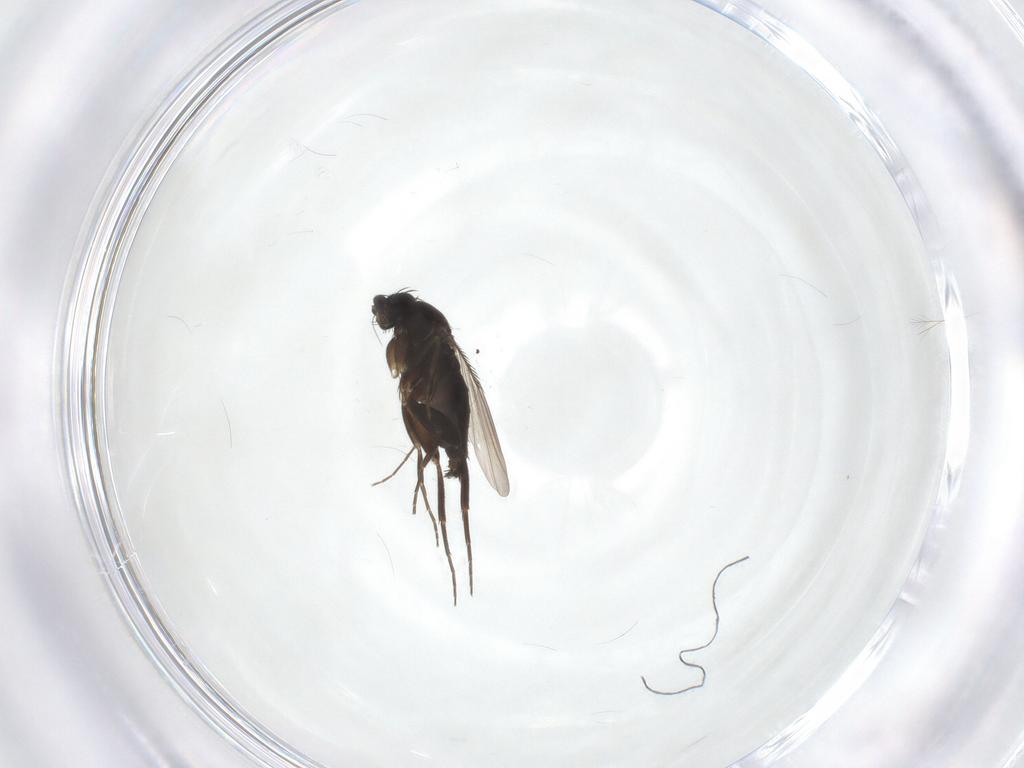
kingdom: Animalia
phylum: Arthropoda
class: Insecta
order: Diptera
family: Phoridae
